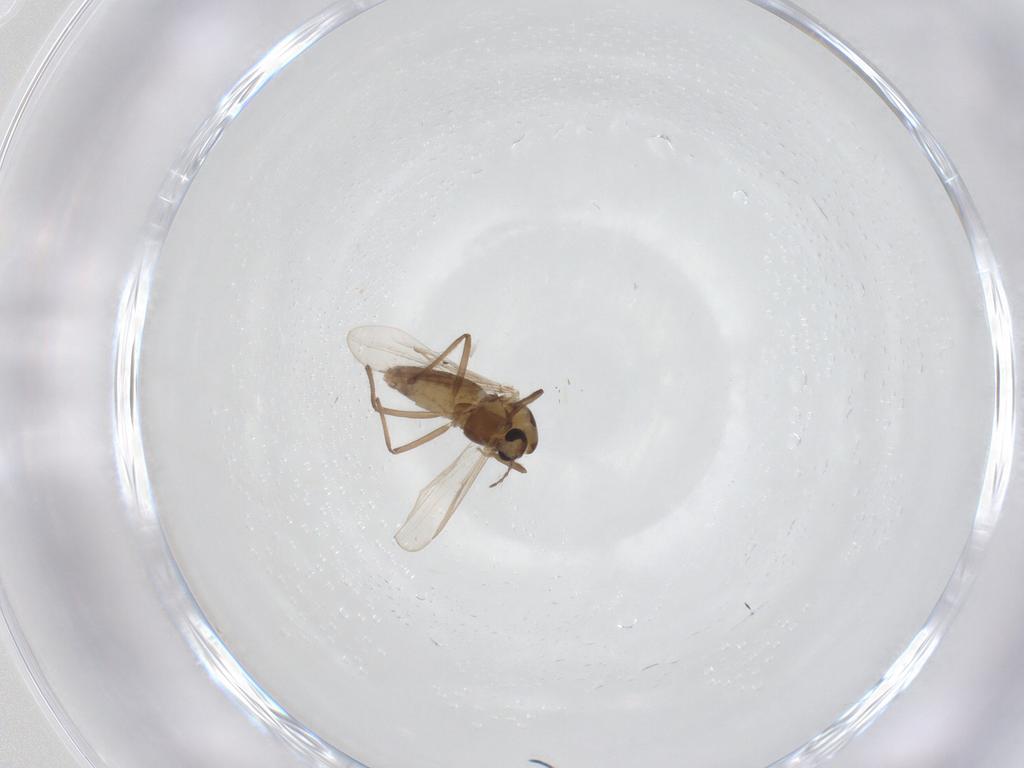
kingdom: Animalia
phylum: Arthropoda
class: Insecta
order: Diptera
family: Chironomidae
